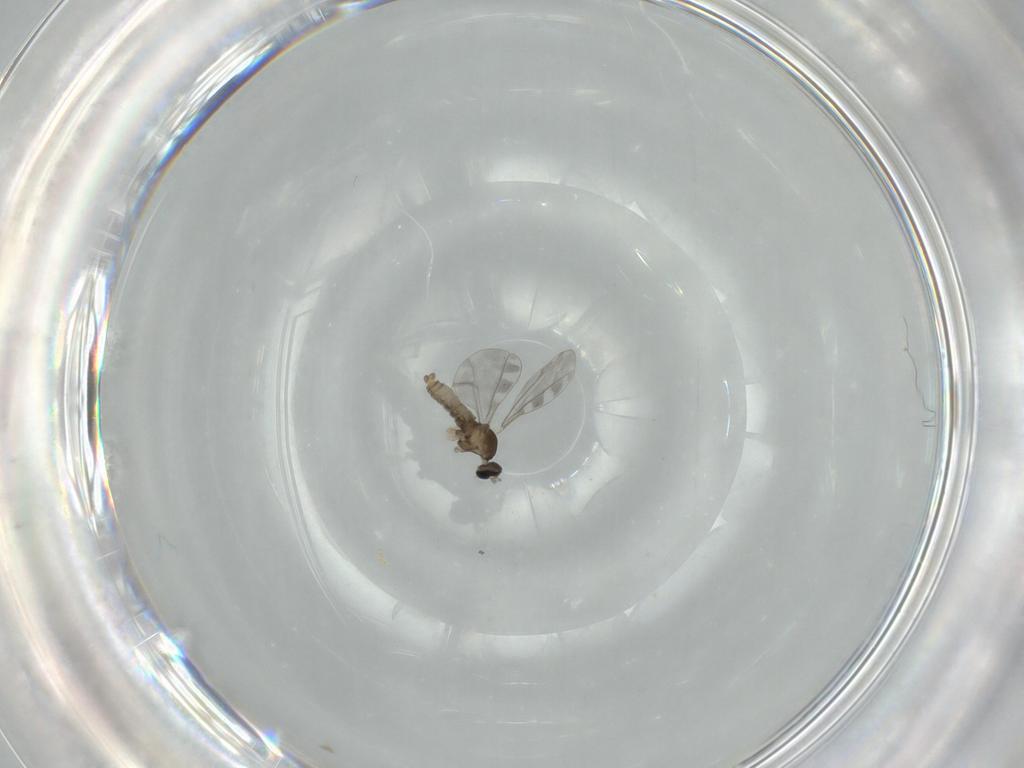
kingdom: Animalia
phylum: Arthropoda
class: Insecta
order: Diptera
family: Cecidomyiidae
